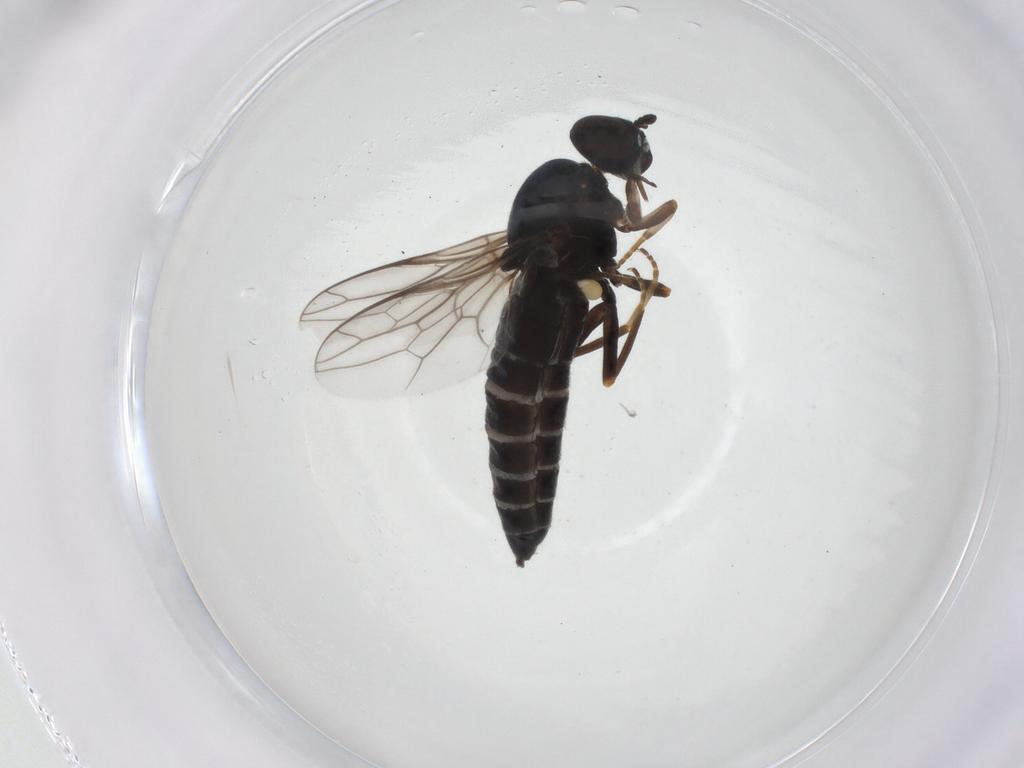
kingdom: Animalia
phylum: Arthropoda
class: Insecta
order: Diptera
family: Scenopinidae
